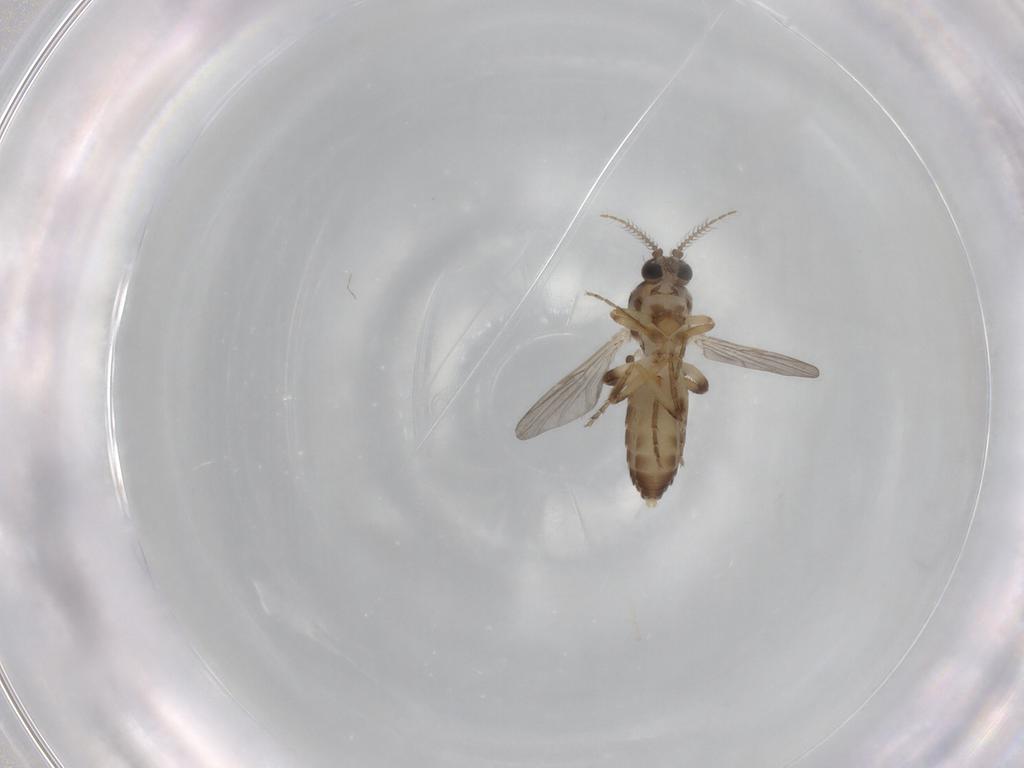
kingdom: Animalia
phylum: Arthropoda
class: Insecta
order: Diptera
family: Ceratopogonidae
